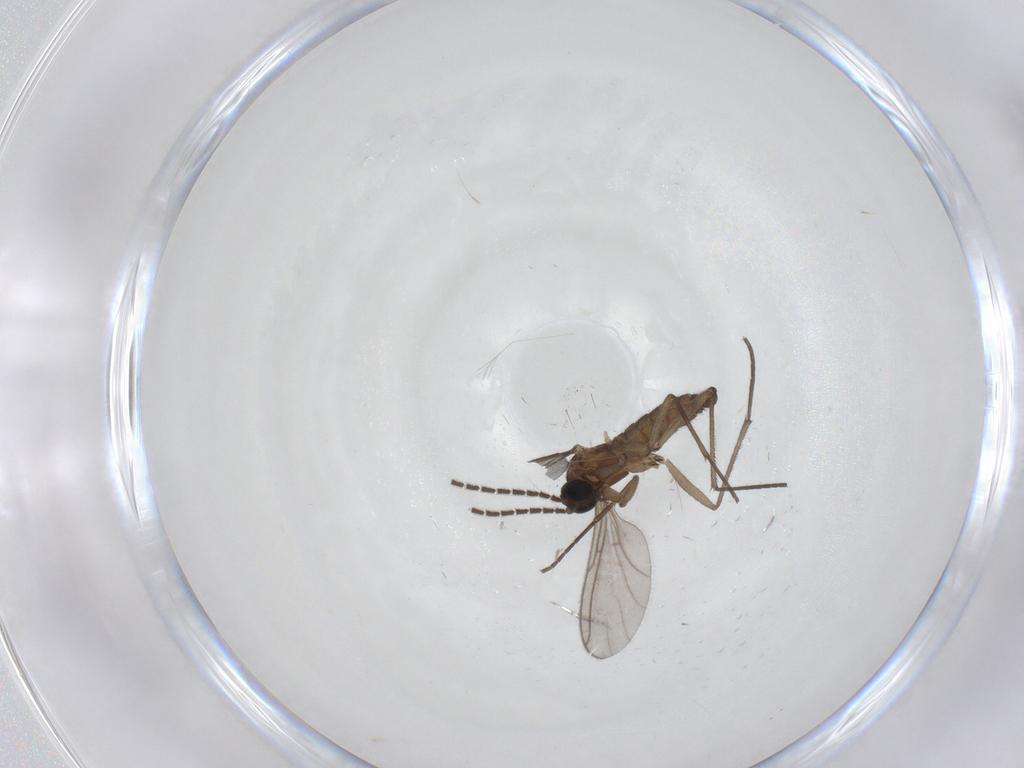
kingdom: Animalia
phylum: Arthropoda
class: Insecta
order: Diptera
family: Sciaridae
